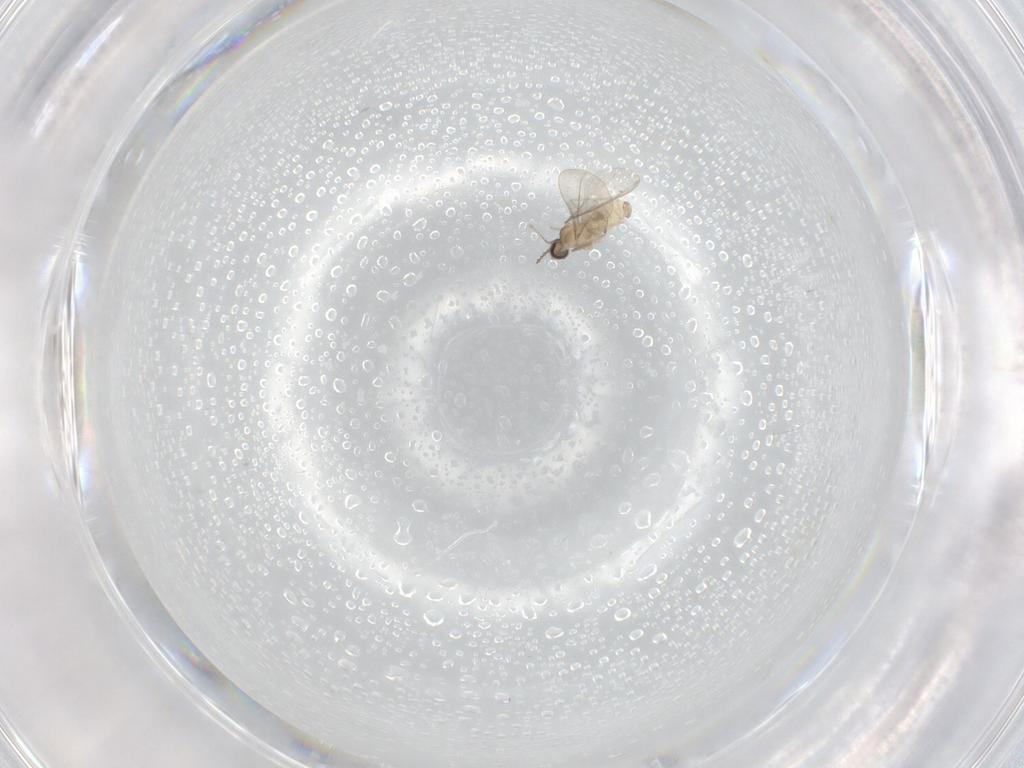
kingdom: Animalia
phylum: Arthropoda
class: Insecta
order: Diptera
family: Cecidomyiidae
